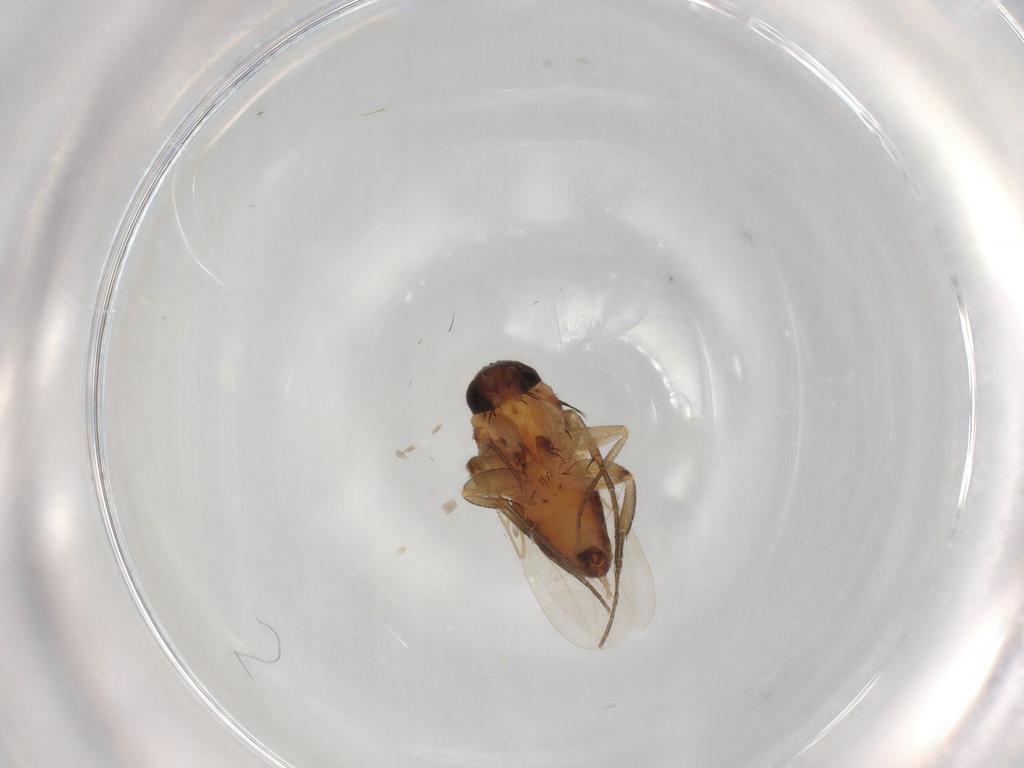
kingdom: Animalia
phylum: Arthropoda
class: Insecta
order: Diptera
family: Phoridae
